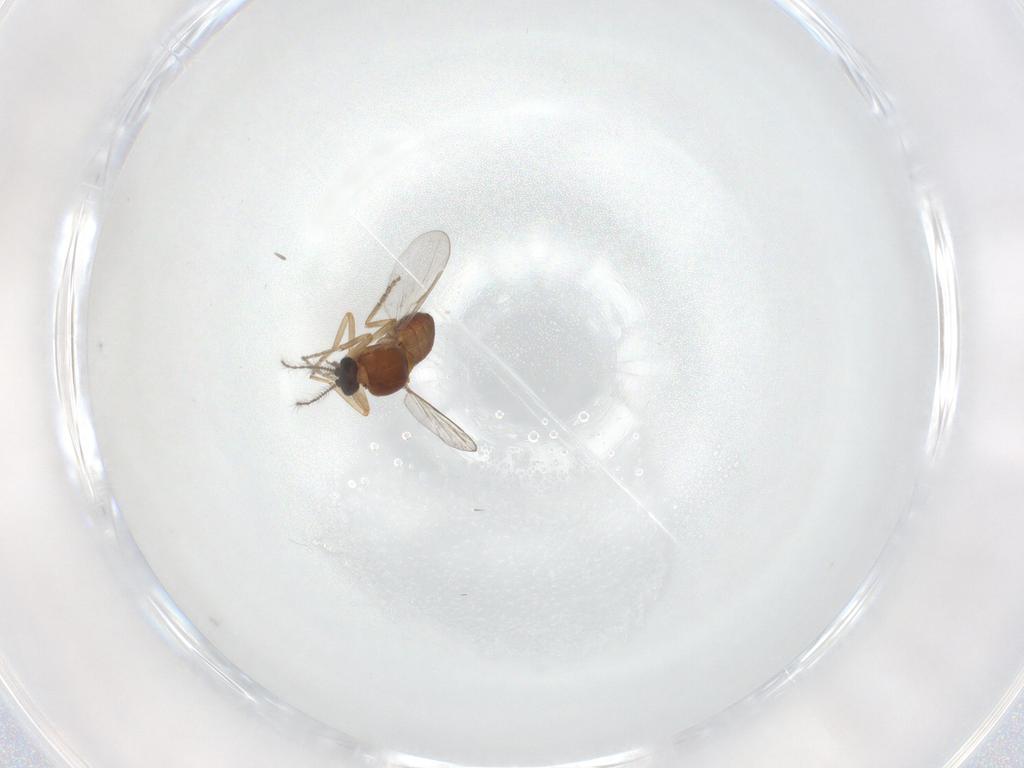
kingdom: Animalia
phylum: Arthropoda
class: Insecta
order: Diptera
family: Ceratopogonidae
